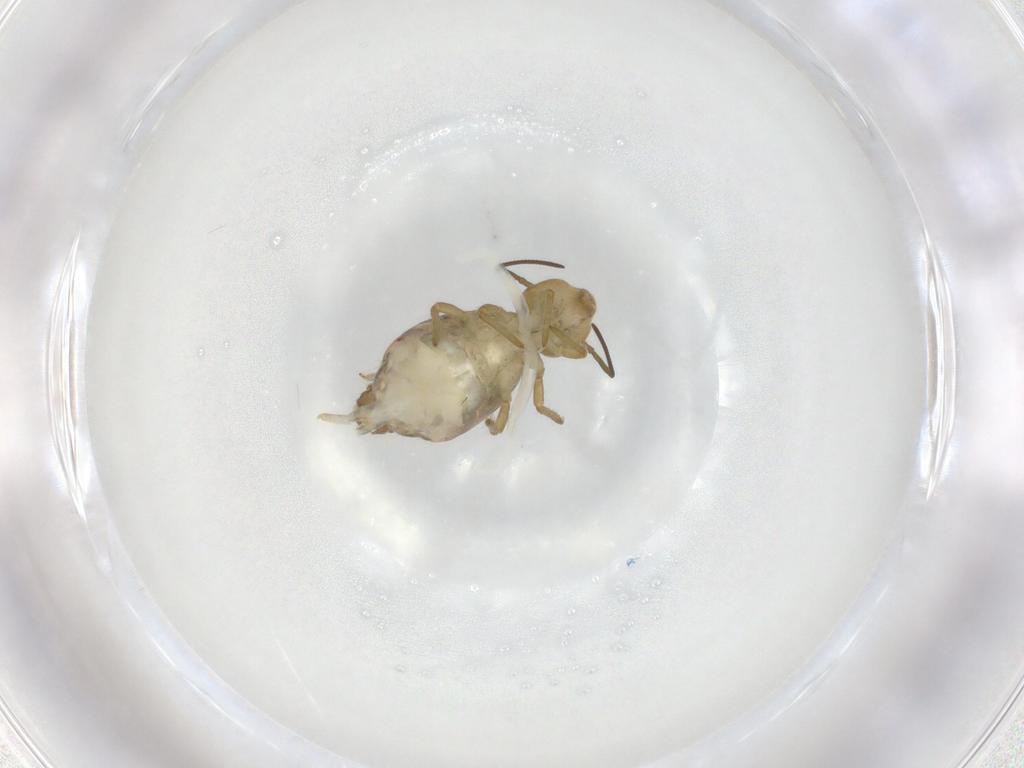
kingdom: Animalia
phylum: Arthropoda
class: Collembola
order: Symphypleona
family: Sminthuridae
